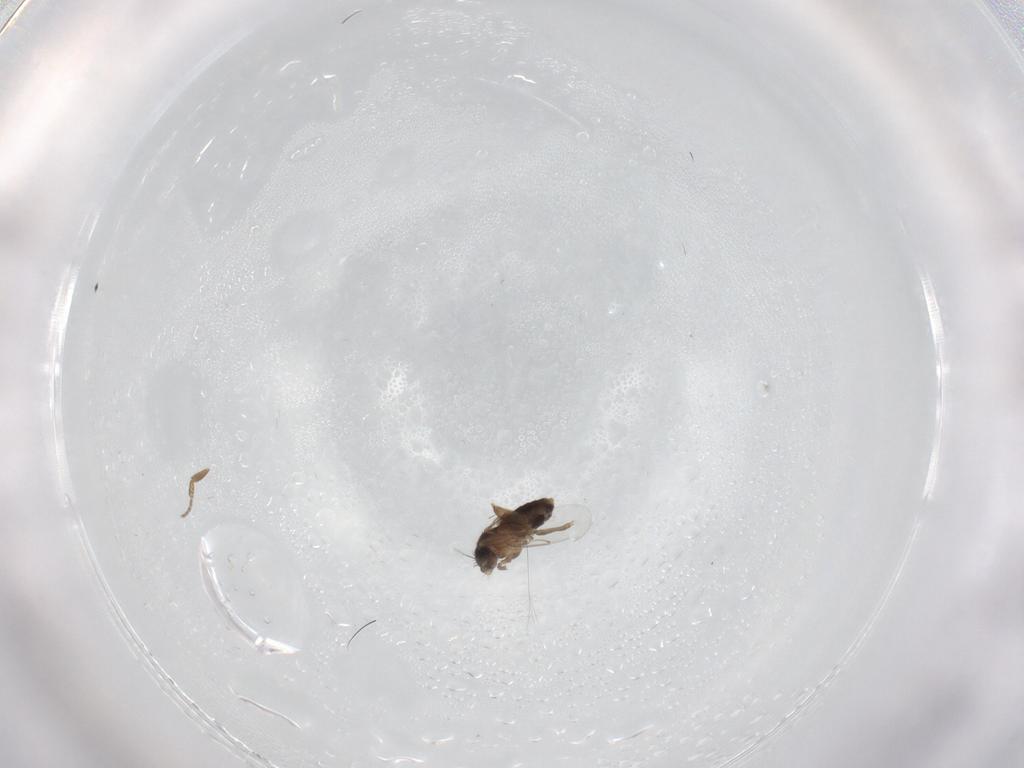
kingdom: Animalia
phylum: Arthropoda
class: Insecta
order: Diptera
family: Phoridae
